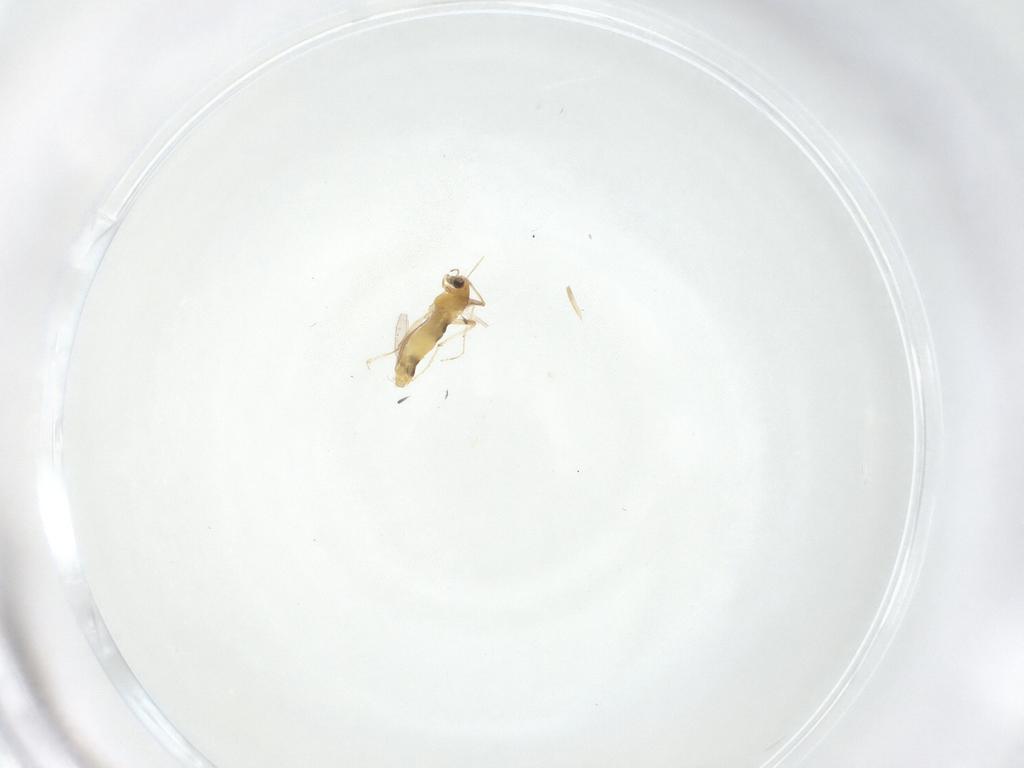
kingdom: Animalia
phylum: Arthropoda
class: Insecta
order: Diptera
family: Chironomidae
